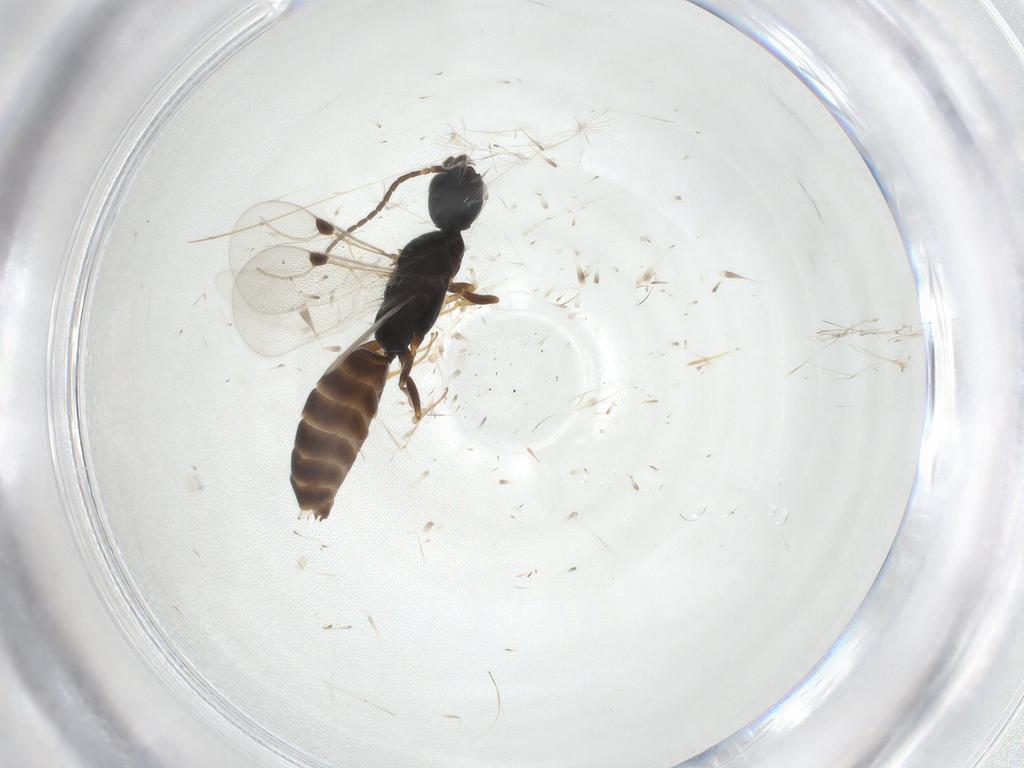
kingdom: Animalia
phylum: Arthropoda
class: Insecta
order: Hymenoptera
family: Bethylidae
